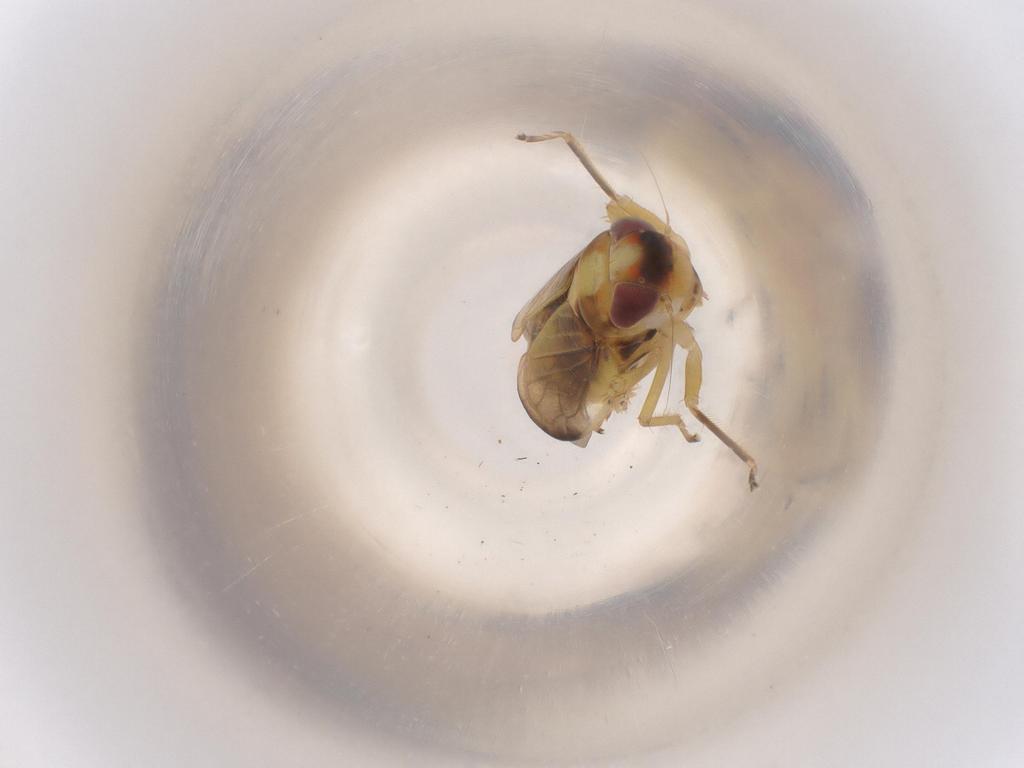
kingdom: Animalia
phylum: Arthropoda
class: Insecta
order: Hemiptera
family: Cicadellidae
